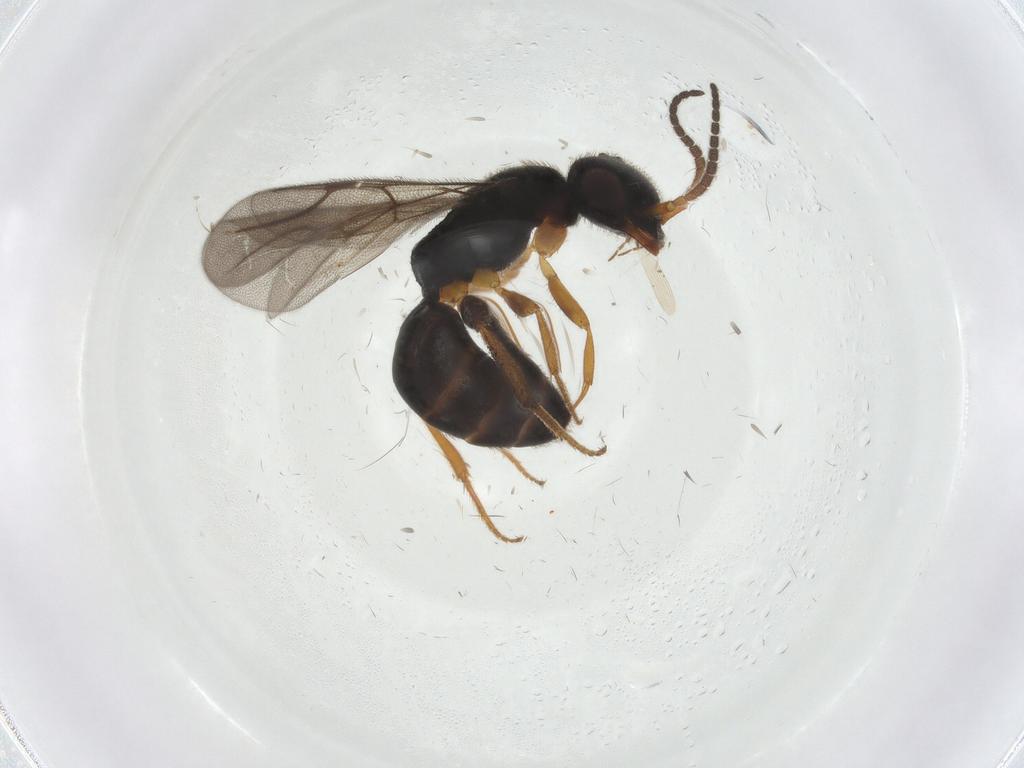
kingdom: Animalia
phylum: Arthropoda
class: Insecta
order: Hymenoptera
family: Bethylidae
